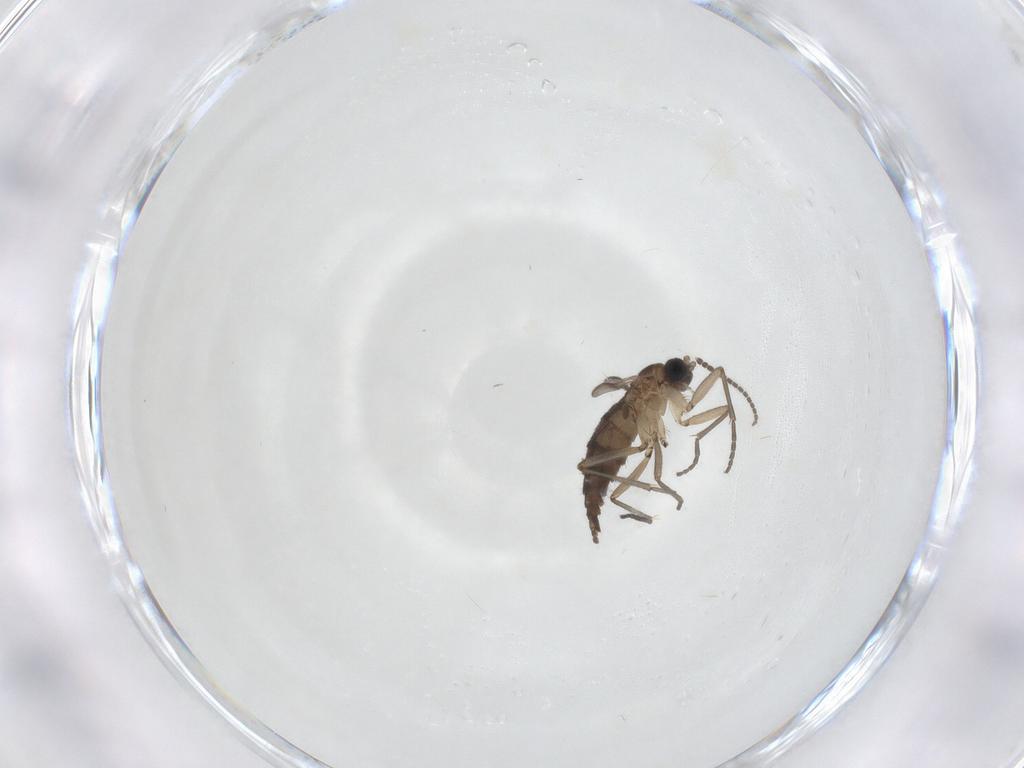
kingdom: Animalia
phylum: Arthropoda
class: Insecta
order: Diptera
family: Sciaridae
